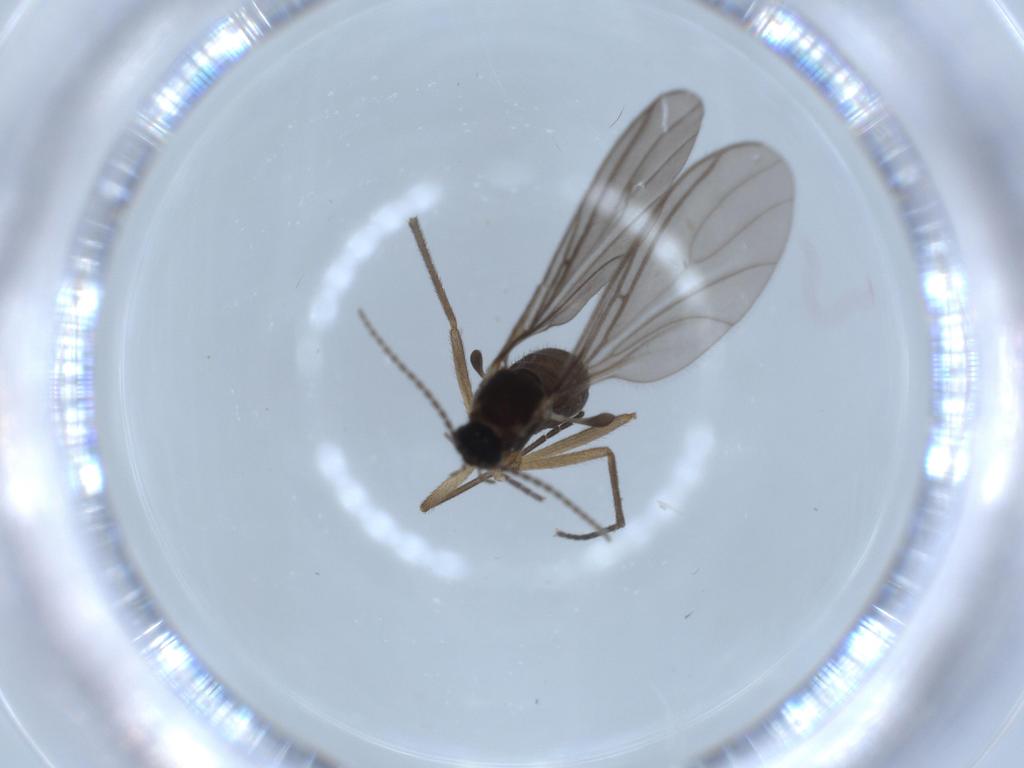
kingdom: Animalia
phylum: Arthropoda
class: Insecta
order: Diptera
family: Sciaridae
